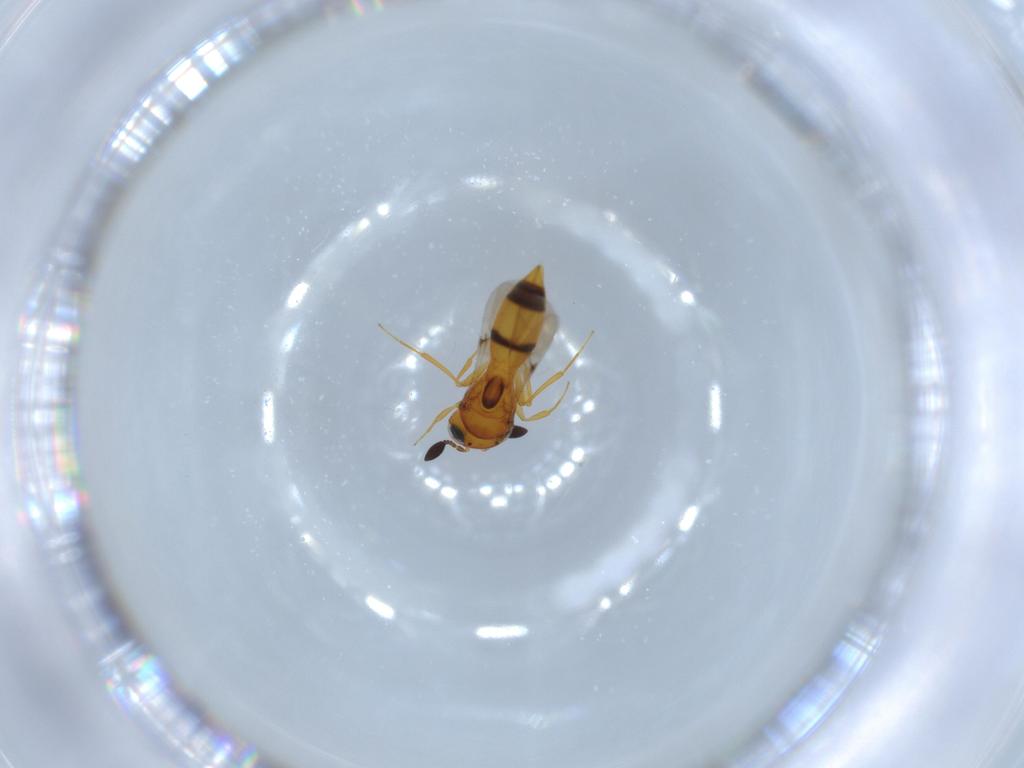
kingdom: Animalia
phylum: Arthropoda
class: Insecta
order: Hymenoptera
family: Scelionidae
